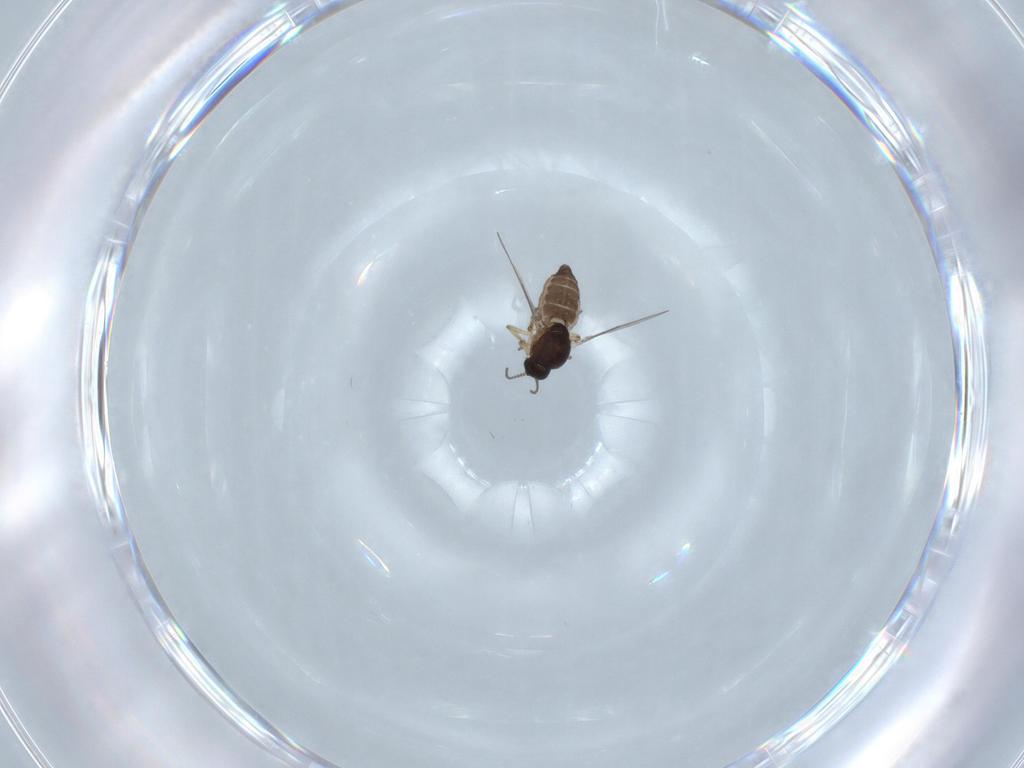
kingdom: Animalia
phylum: Arthropoda
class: Insecta
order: Diptera
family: Ceratopogonidae
